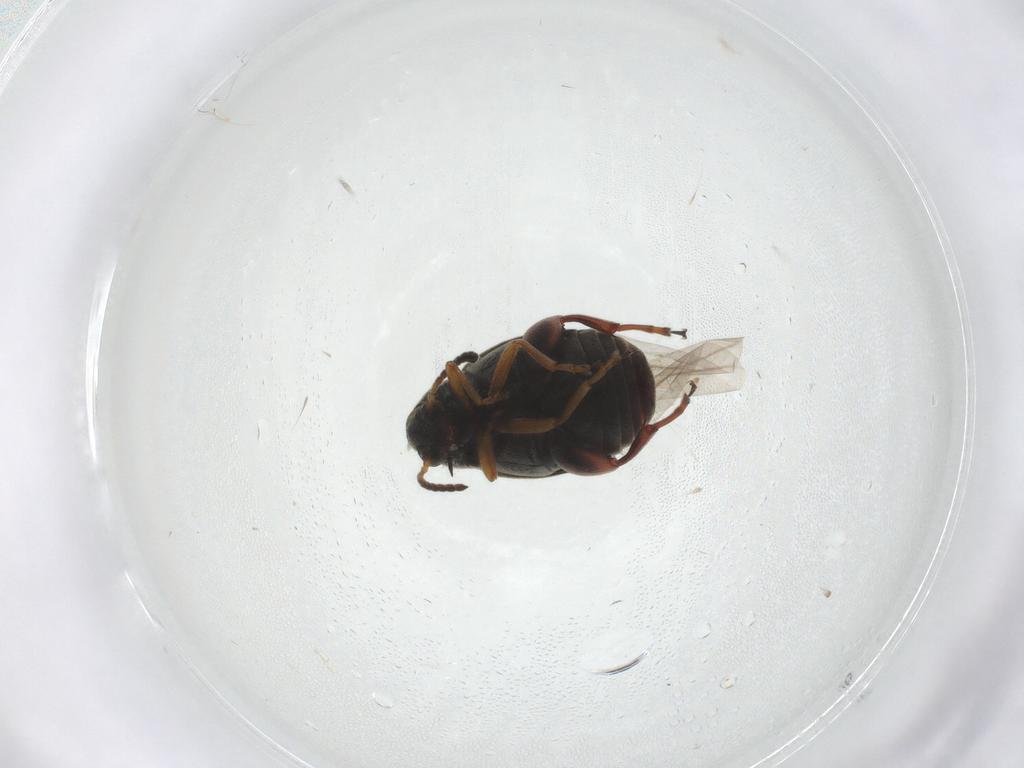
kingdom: Animalia
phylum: Arthropoda
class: Insecta
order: Coleoptera
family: Chrysomelidae
